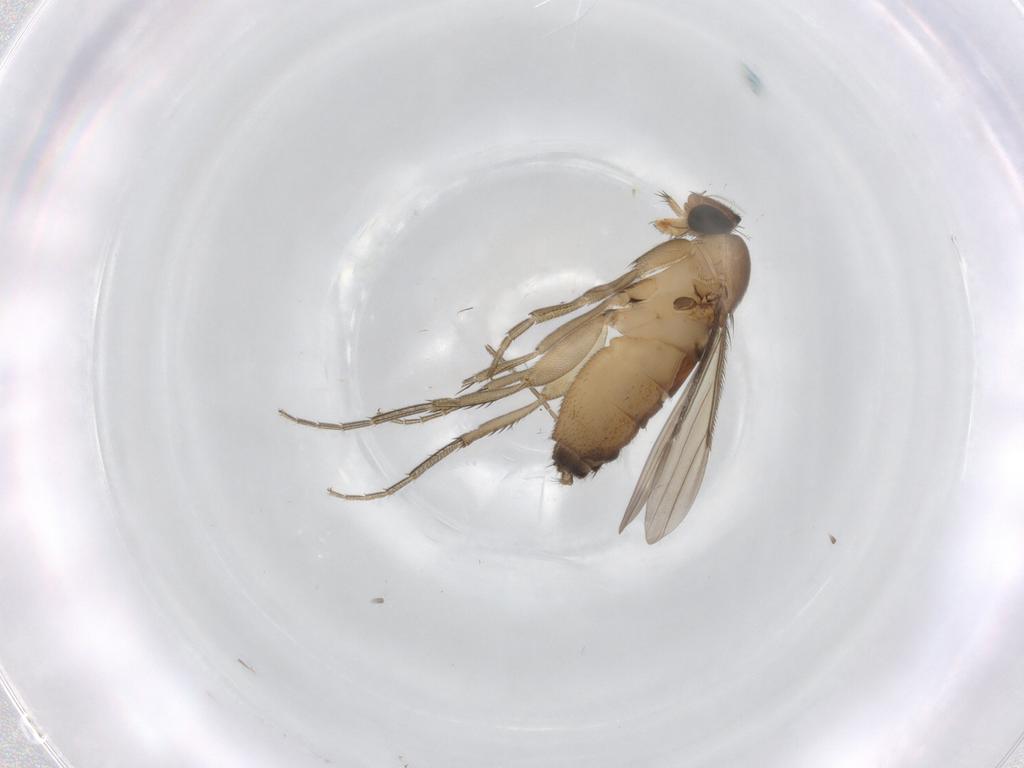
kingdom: Animalia
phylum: Arthropoda
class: Insecta
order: Diptera
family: Phoridae
